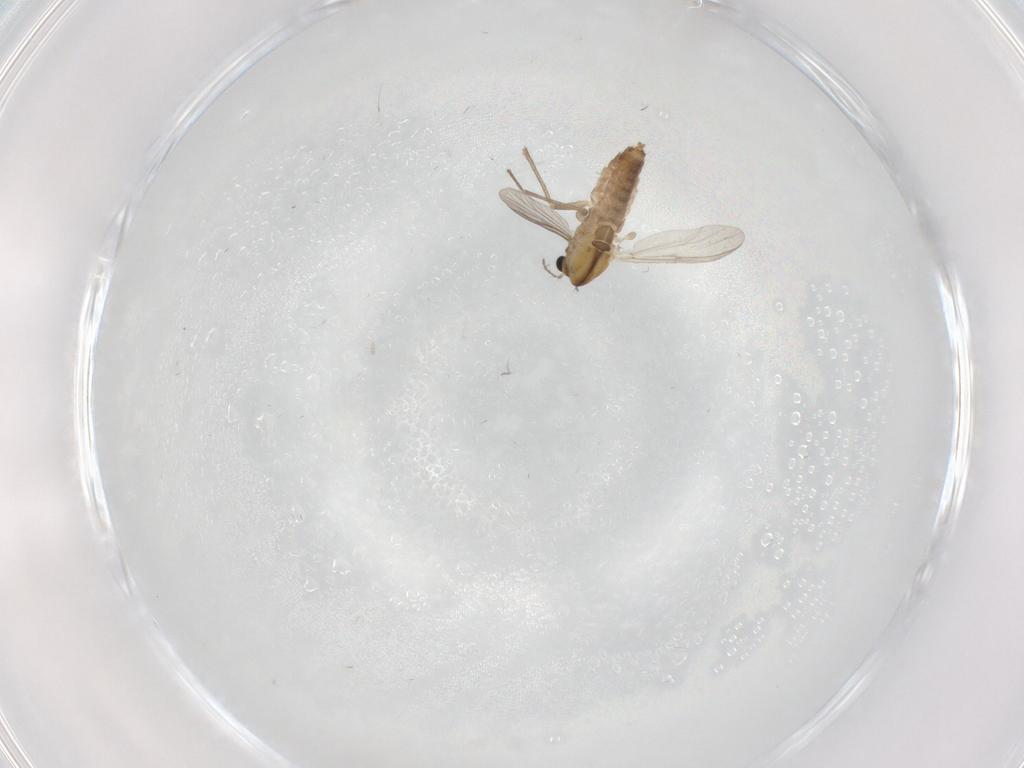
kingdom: Animalia
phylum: Arthropoda
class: Insecta
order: Diptera
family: Chironomidae
